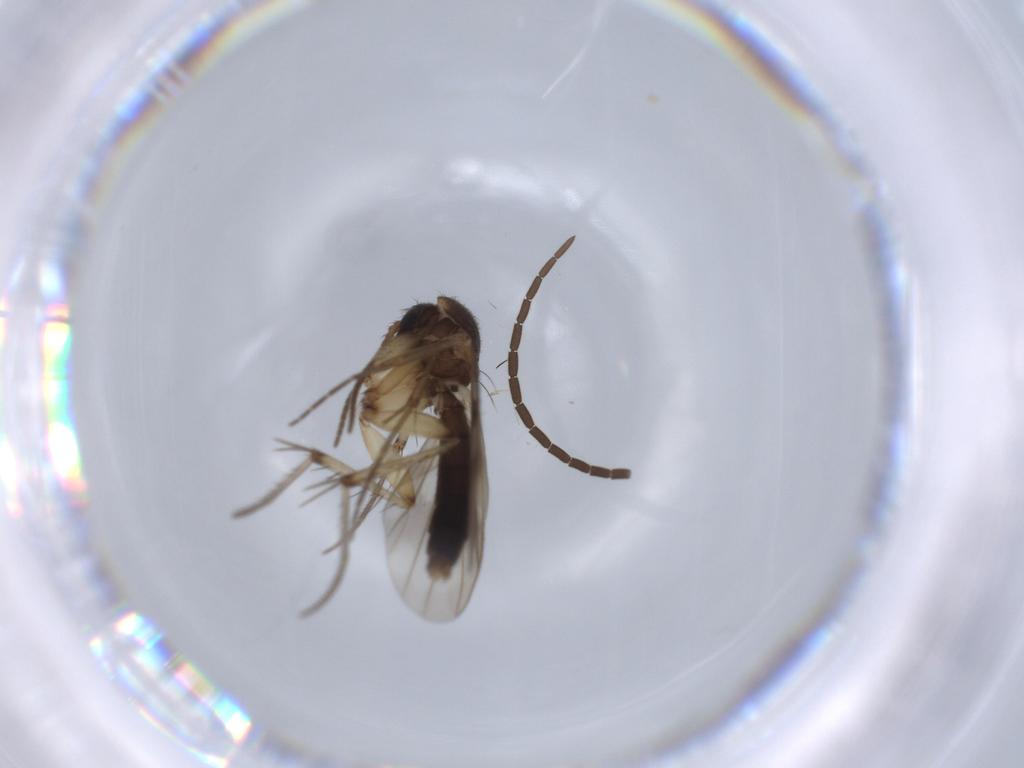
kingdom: Animalia
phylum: Arthropoda
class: Insecta
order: Diptera
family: Mycetophilidae
